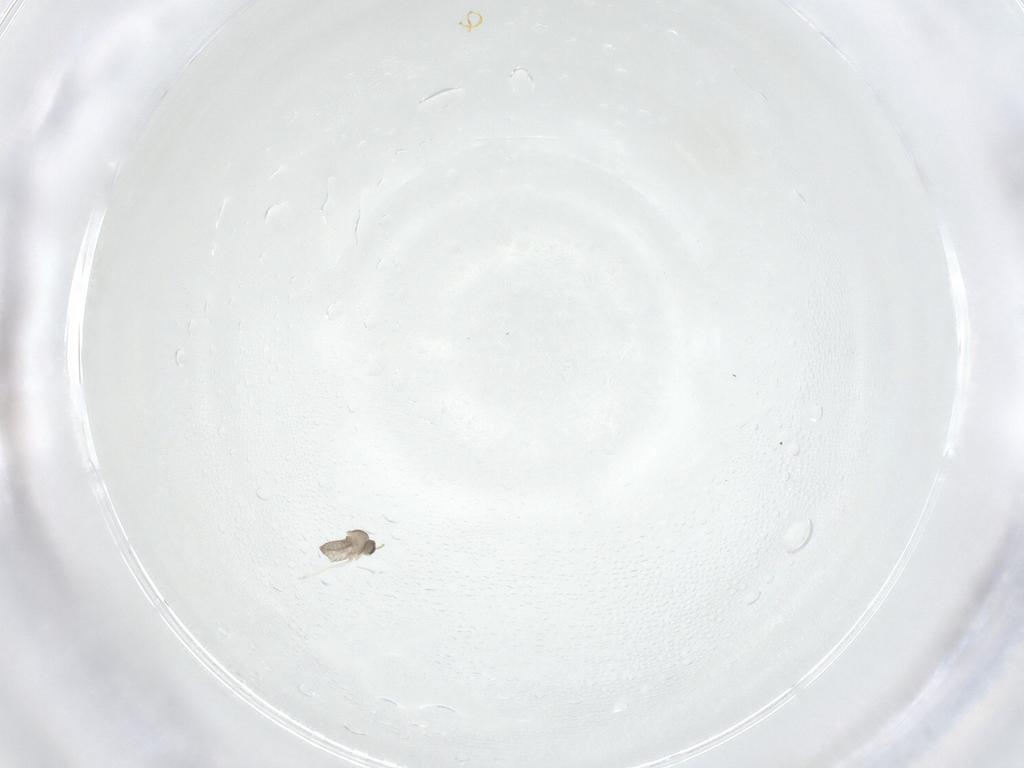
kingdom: Animalia
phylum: Arthropoda
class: Insecta
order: Diptera
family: Cecidomyiidae
